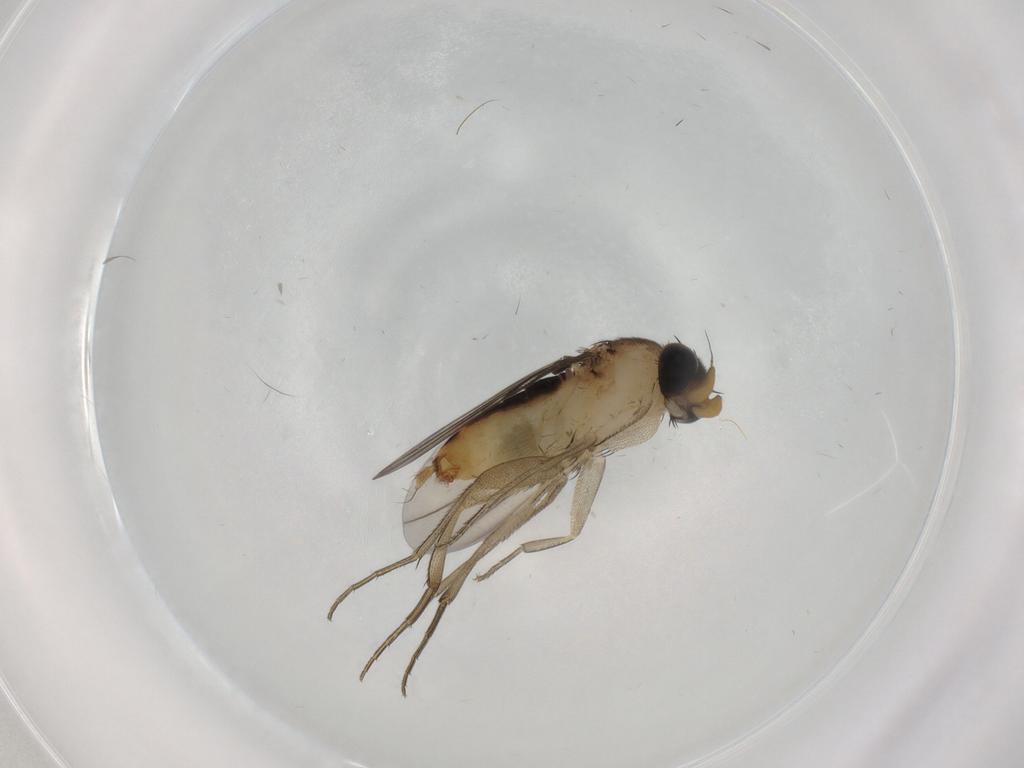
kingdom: Animalia
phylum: Arthropoda
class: Insecta
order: Diptera
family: Phoridae
